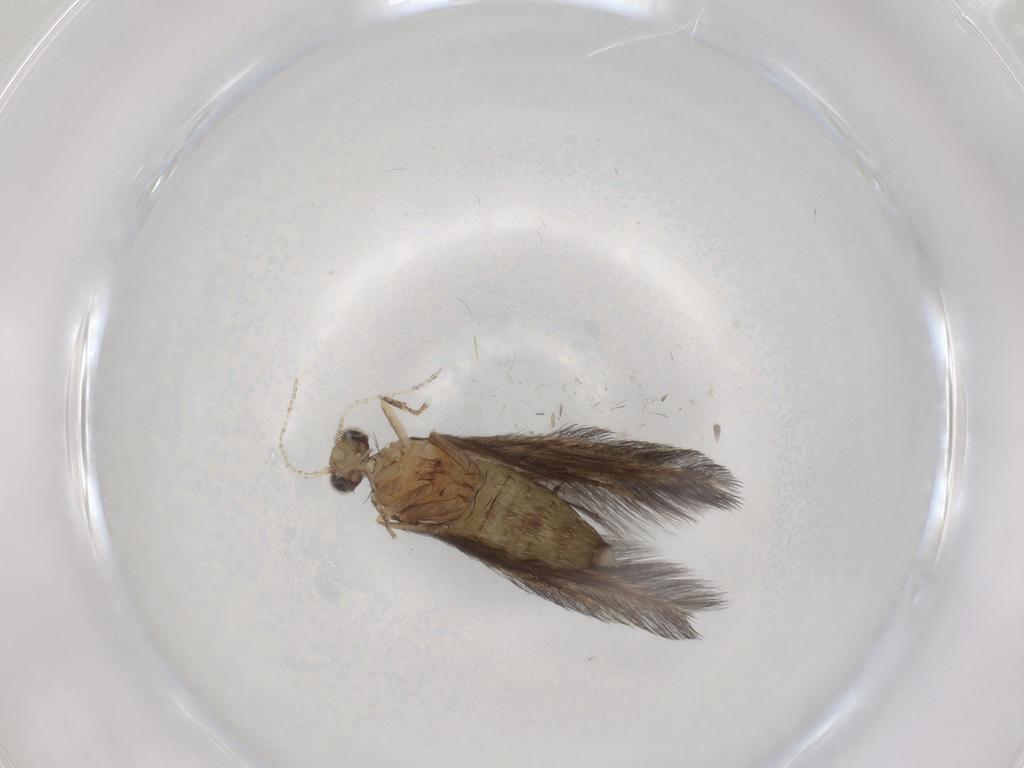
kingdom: Animalia
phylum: Arthropoda
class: Insecta
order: Trichoptera
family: Hydroptilidae
